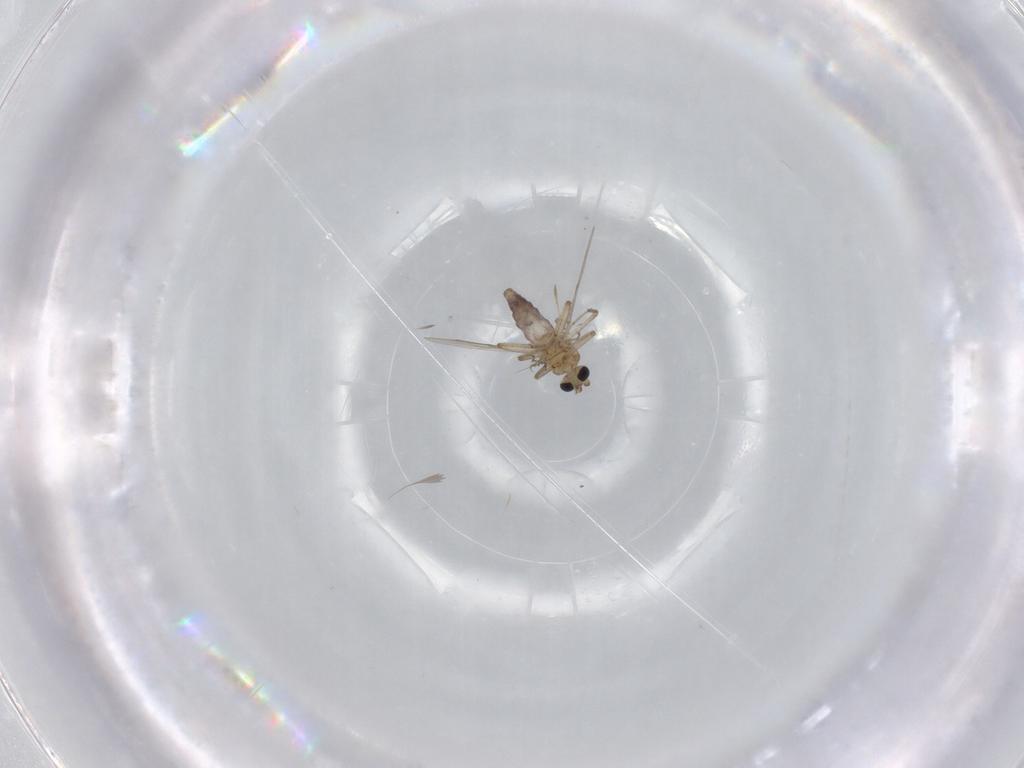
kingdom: Animalia
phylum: Arthropoda
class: Insecta
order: Diptera
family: Ceratopogonidae
